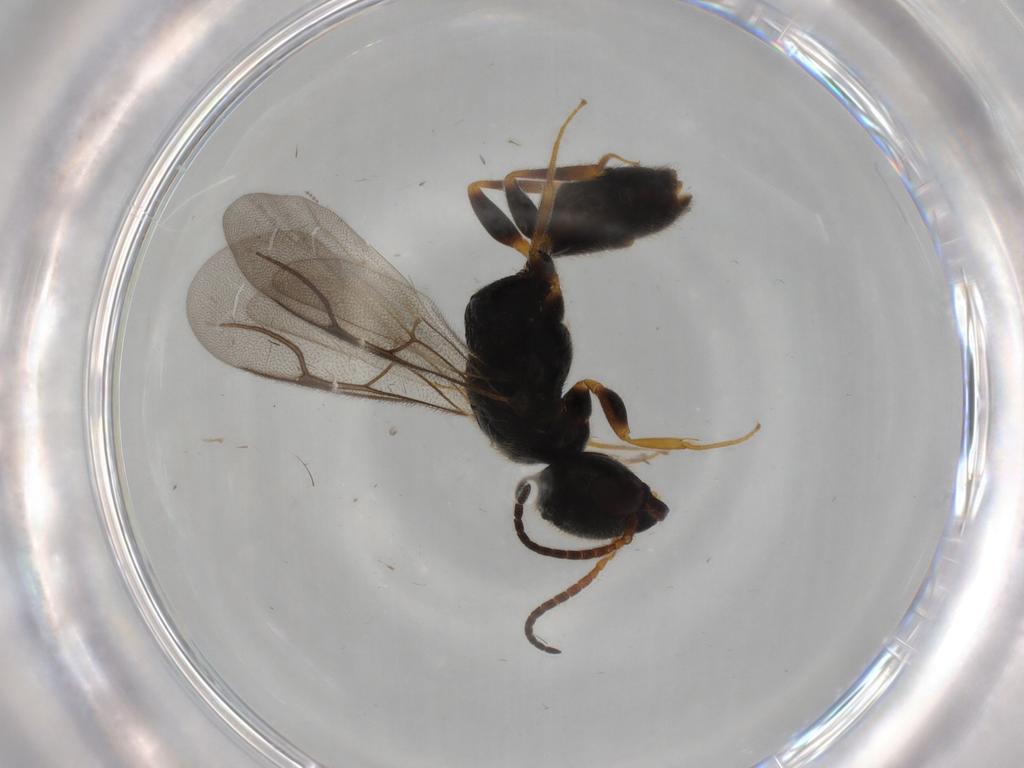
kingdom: Animalia
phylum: Arthropoda
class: Insecta
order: Hymenoptera
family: Bethylidae
